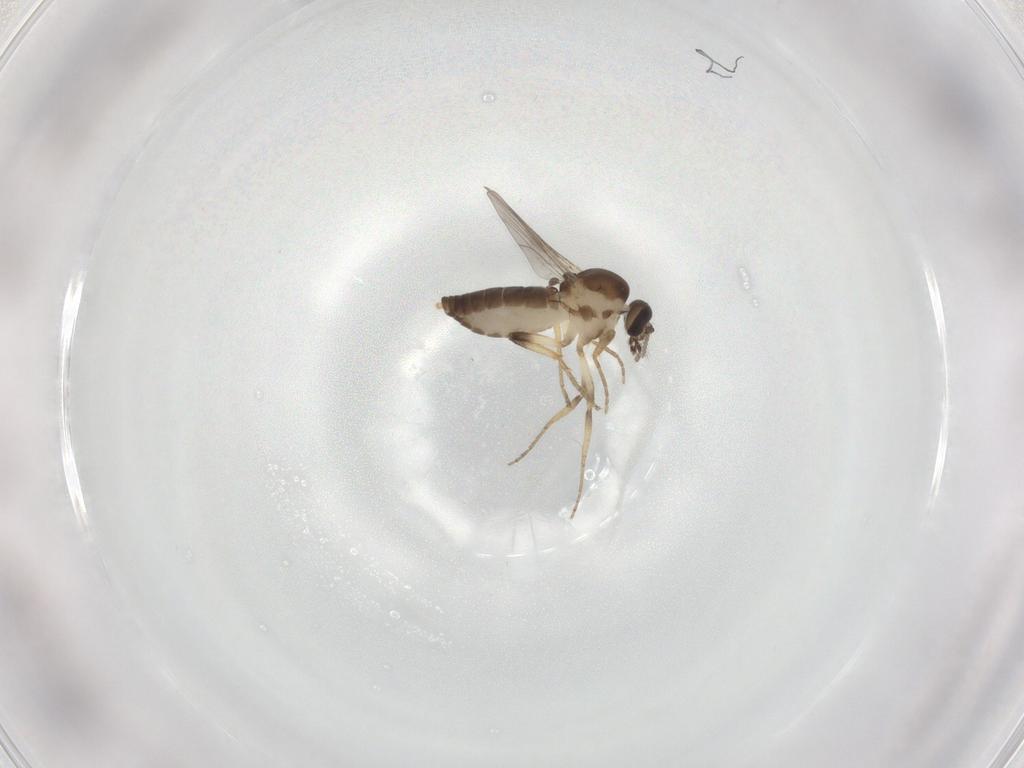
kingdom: Animalia
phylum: Arthropoda
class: Insecta
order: Diptera
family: Ceratopogonidae
